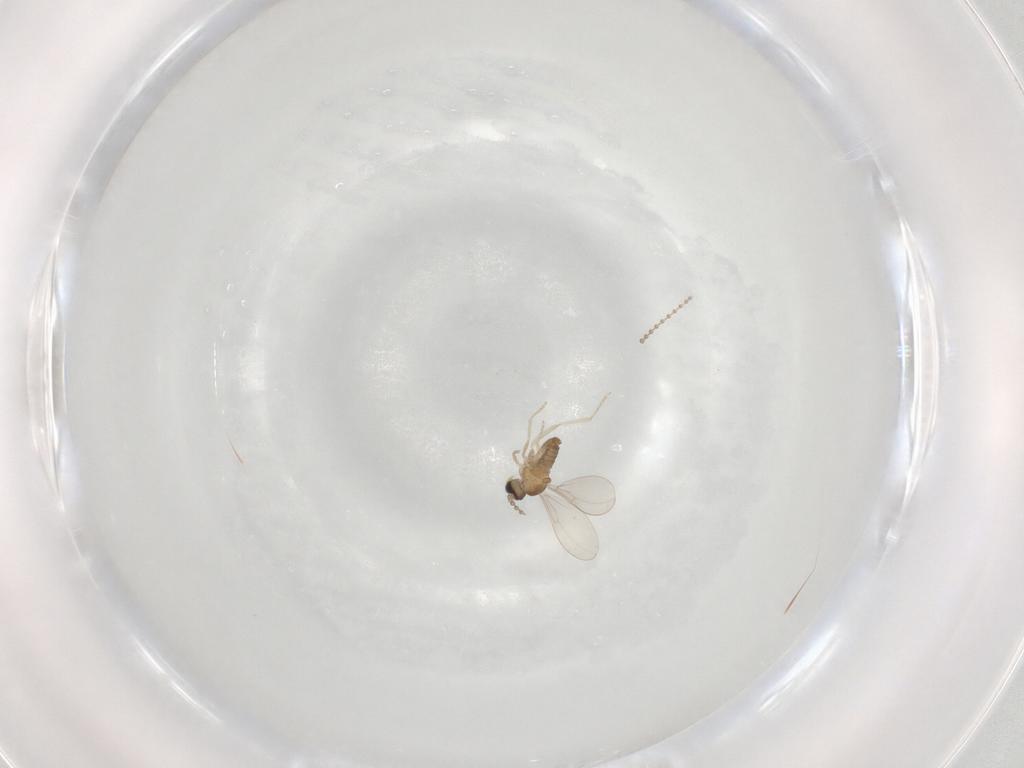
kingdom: Animalia
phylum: Arthropoda
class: Insecta
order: Diptera
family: Cecidomyiidae
